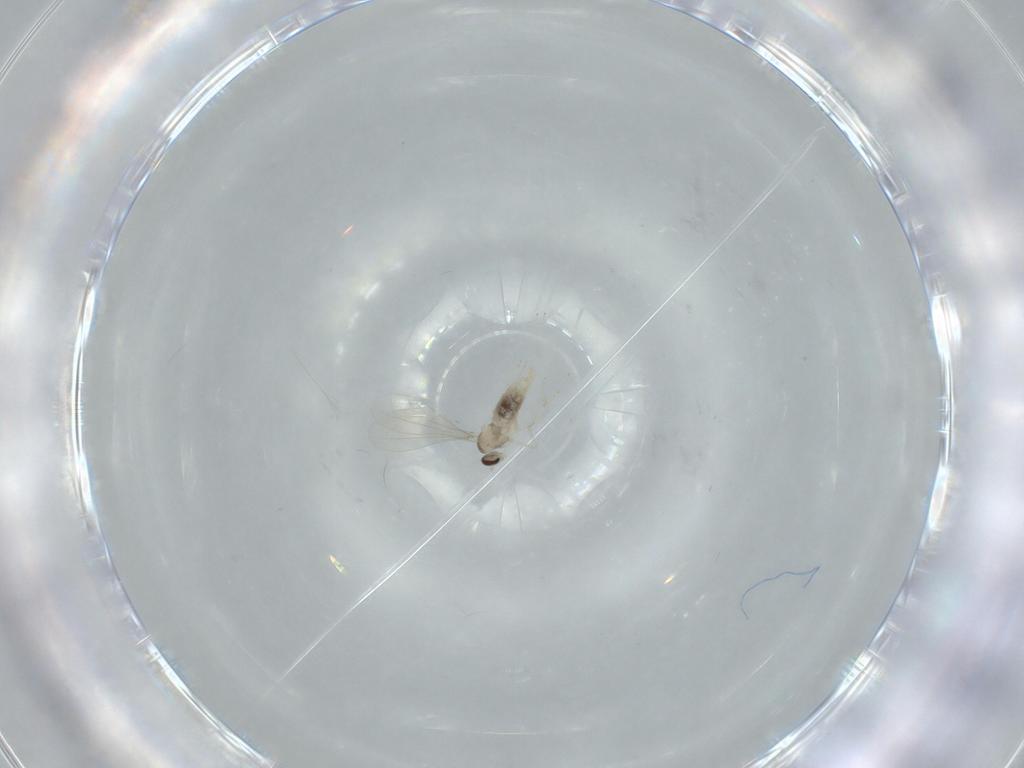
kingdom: Animalia
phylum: Arthropoda
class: Insecta
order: Diptera
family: Cecidomyiidae
